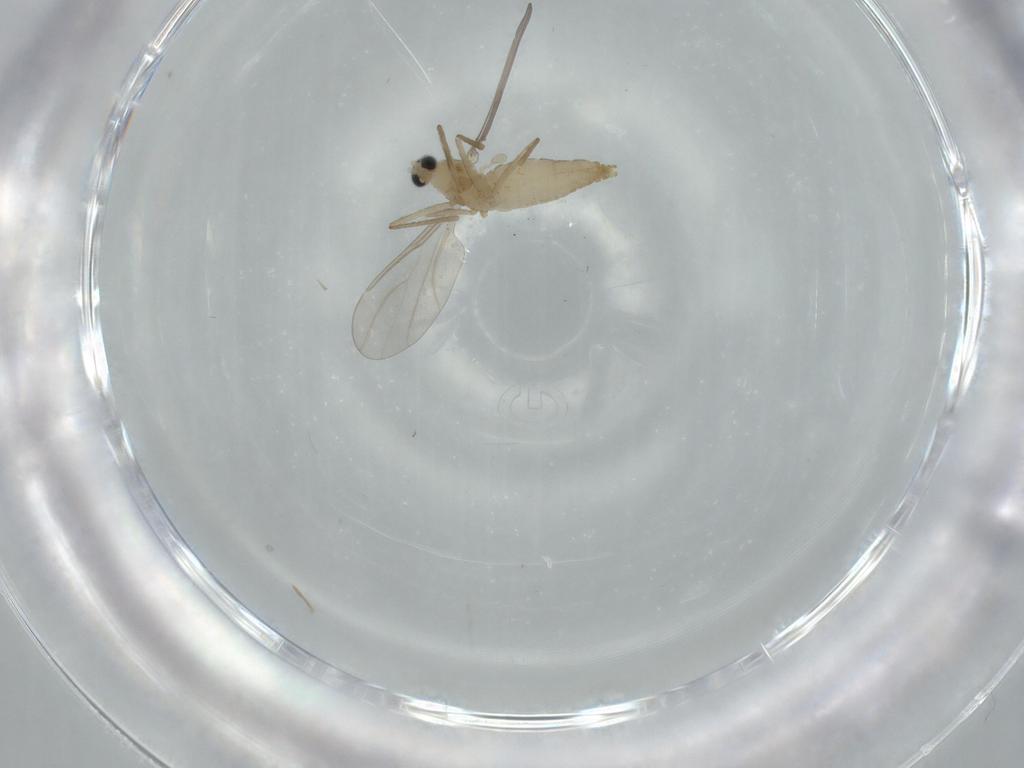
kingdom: Animalia
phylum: Arthropoda
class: Insecta
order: Diptera
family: Cecidomyiidae
